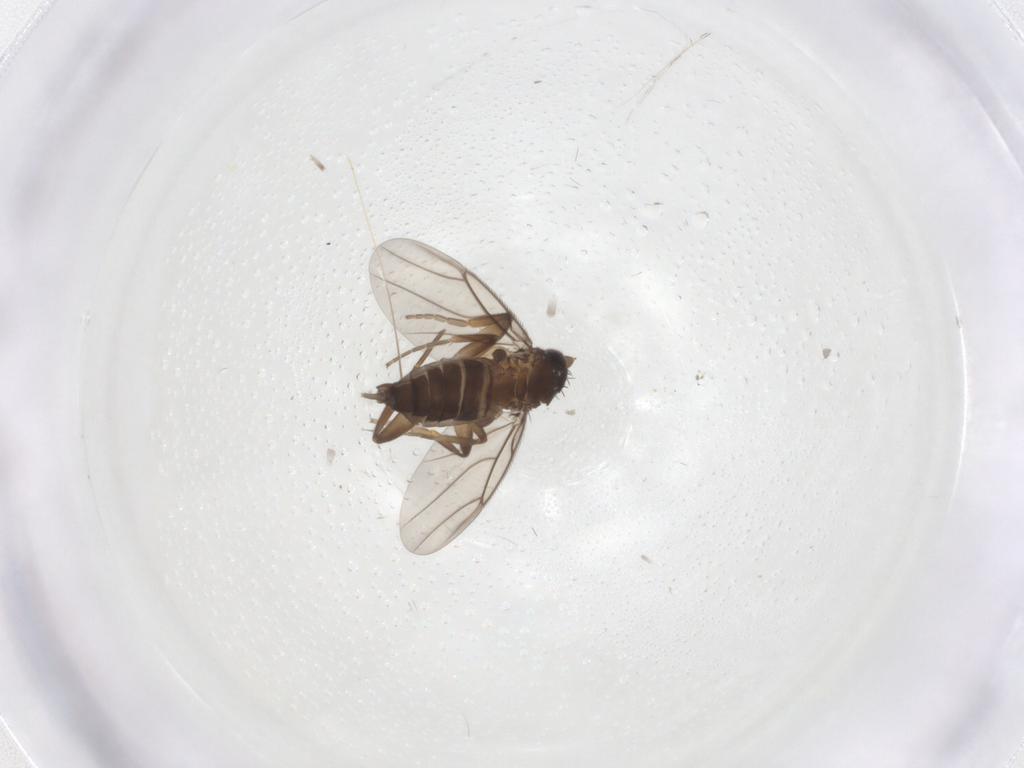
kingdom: Animalia
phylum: Arthropoda
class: Insecta
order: Diptera
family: Phoridae
